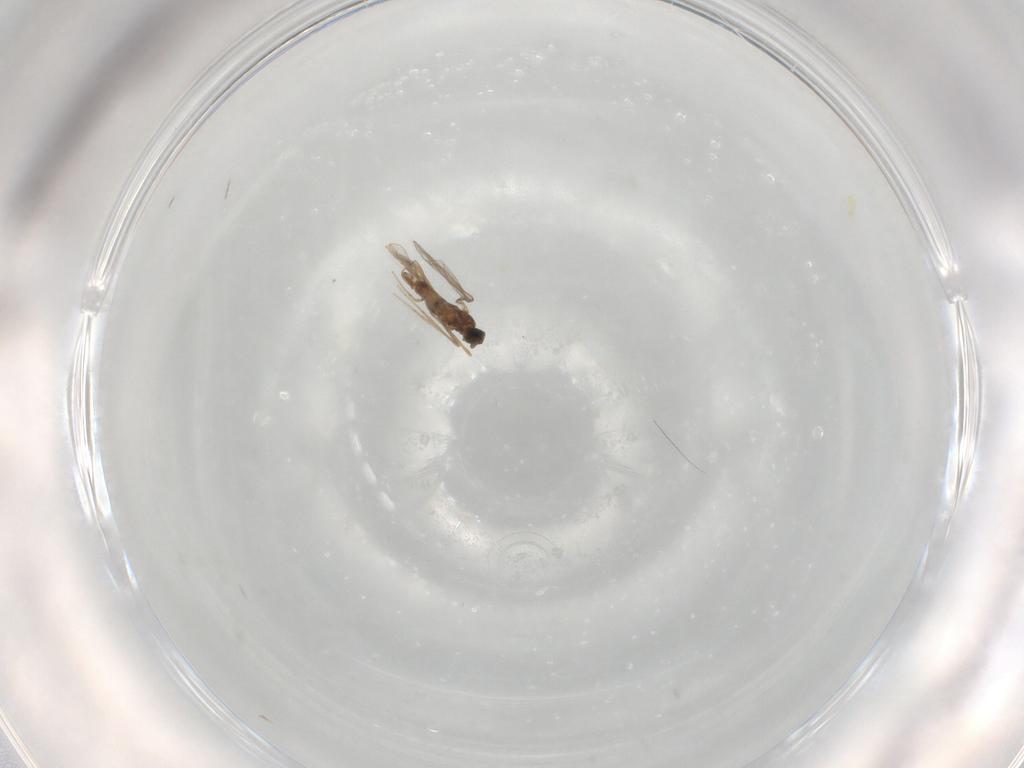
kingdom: Animalia
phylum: Arthropoda
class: Insecta
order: Diptera
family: Cecidomyiidae
